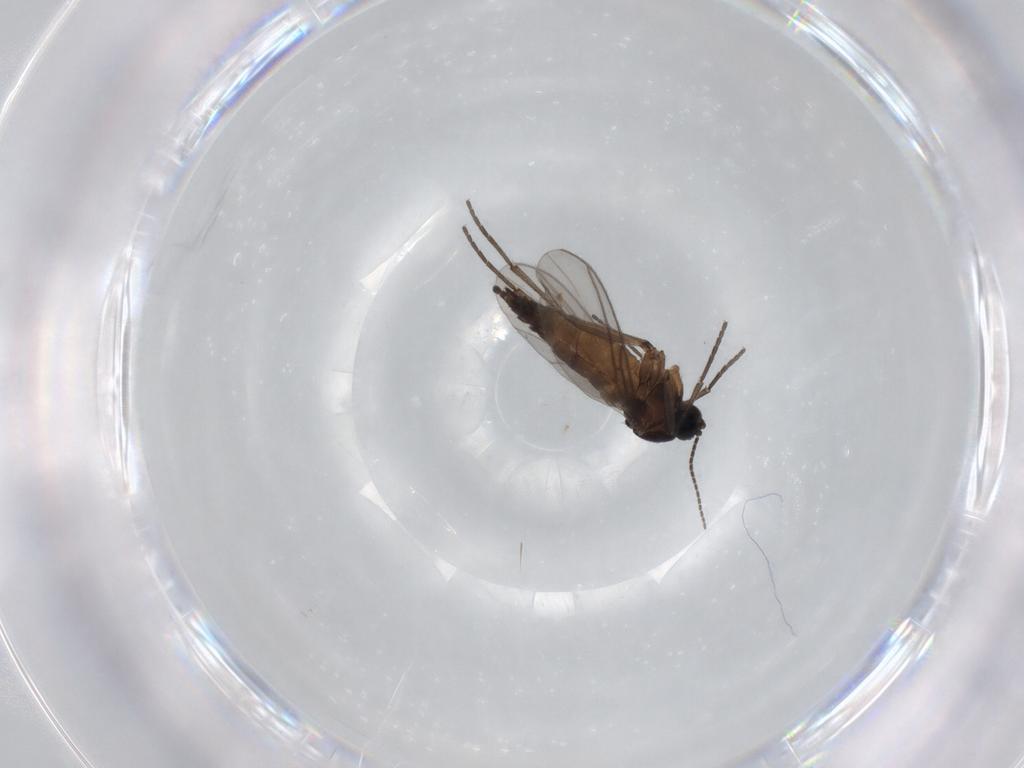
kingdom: Animalia
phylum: Arthropoda
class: Insecta
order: Diptera
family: Sciaridae
